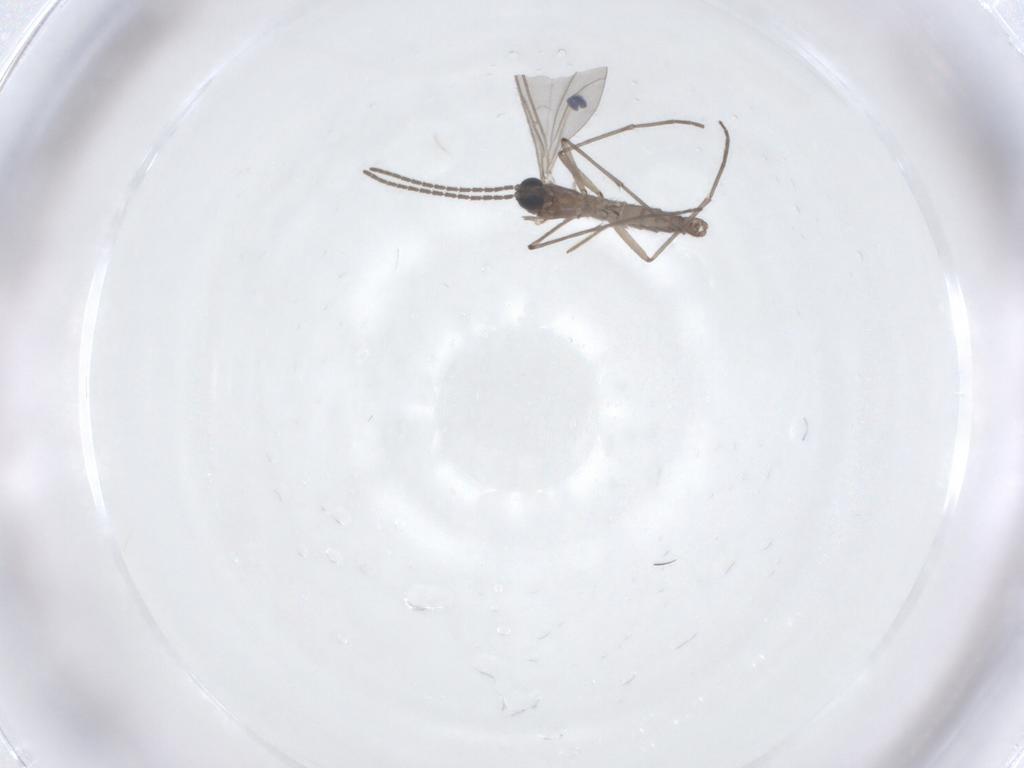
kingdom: Animalia
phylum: Arthropoda
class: Insecta
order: Diptera
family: Sciaridae
